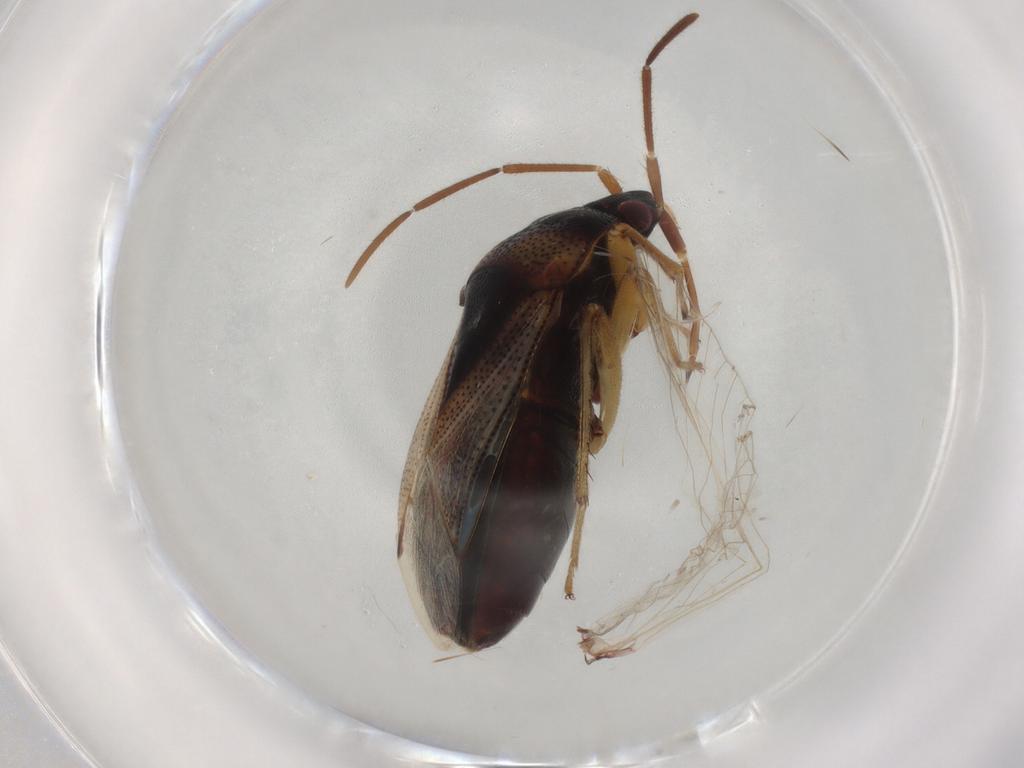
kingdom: Animalia
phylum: Arthropoda
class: Insecta
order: Hemiptera
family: Rhyparochromidae
